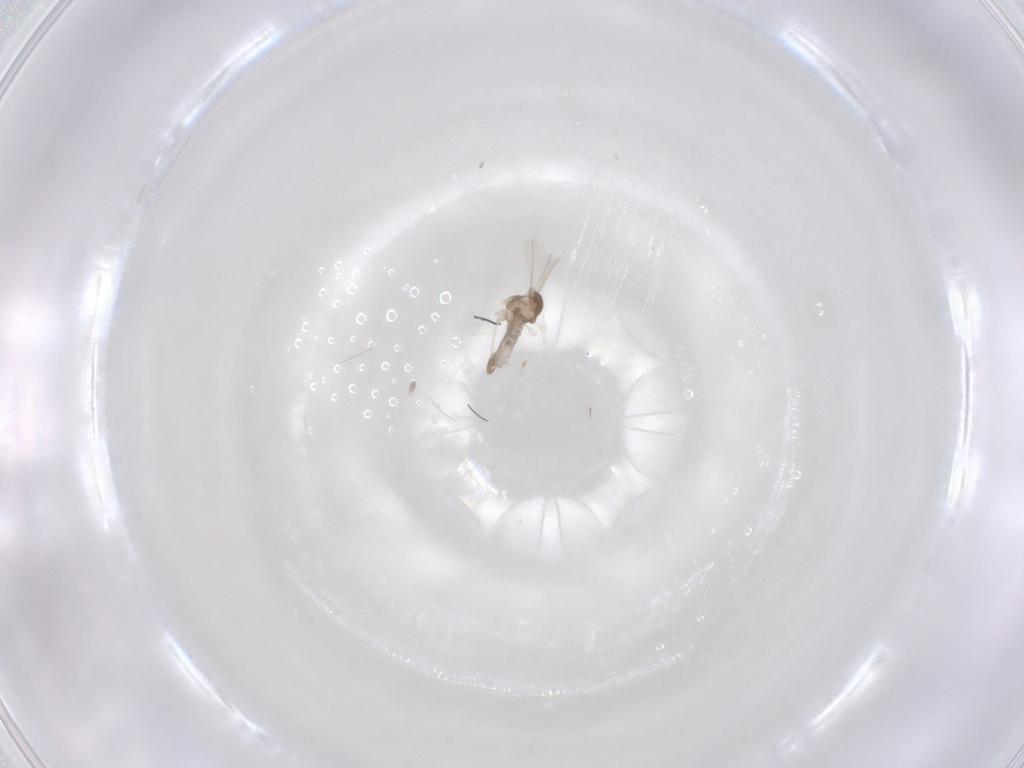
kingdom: Animalia
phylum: Arthropoda
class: Insecta
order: Diptera
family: Cecidomyiidae
